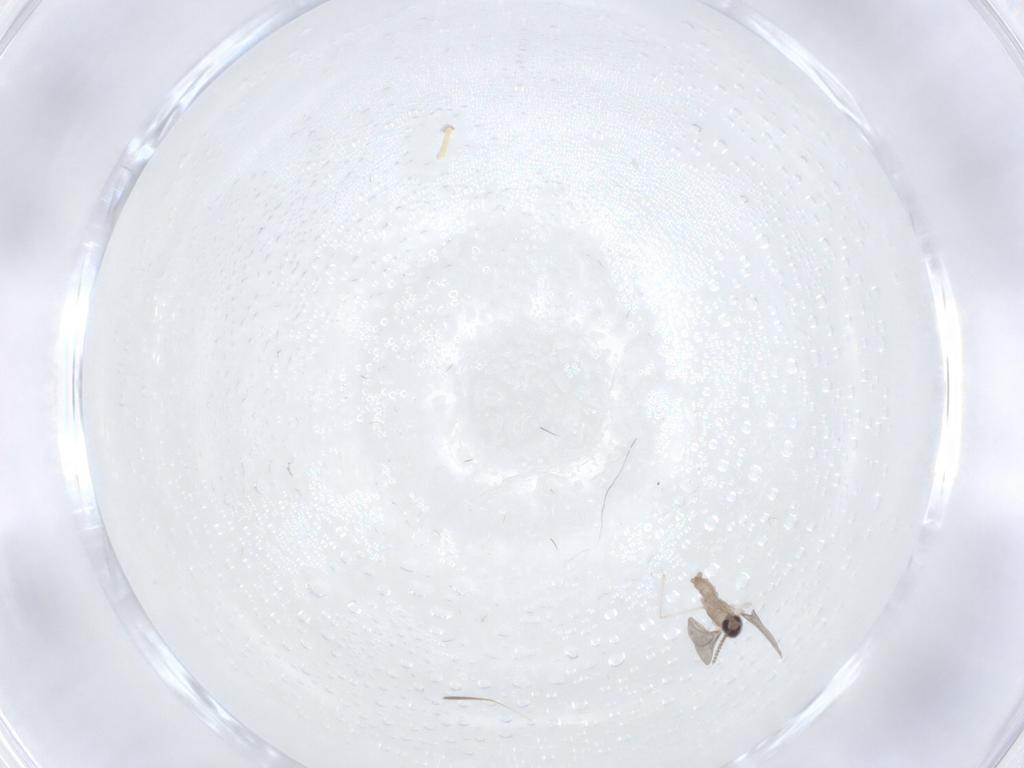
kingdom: Animalia
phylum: Arthropoda
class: Insecta
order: Diptera
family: Cecidomyiidae
